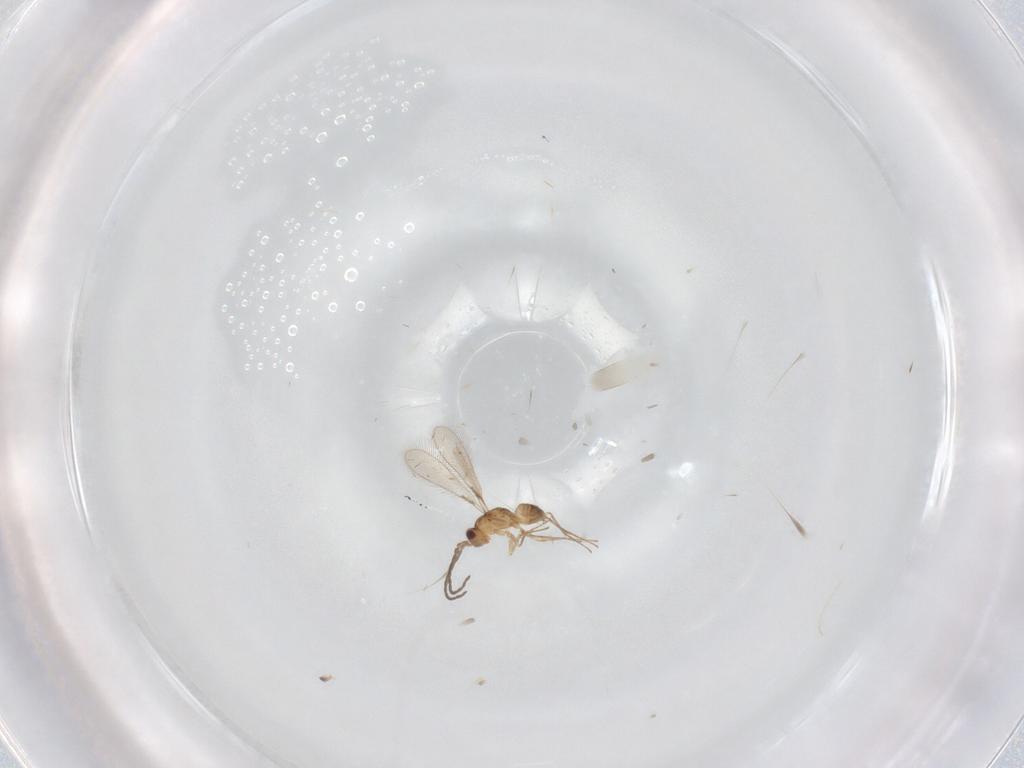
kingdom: Animalia
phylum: Arthropoda
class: Insecta
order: Hymenoptera
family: Mymaridae
